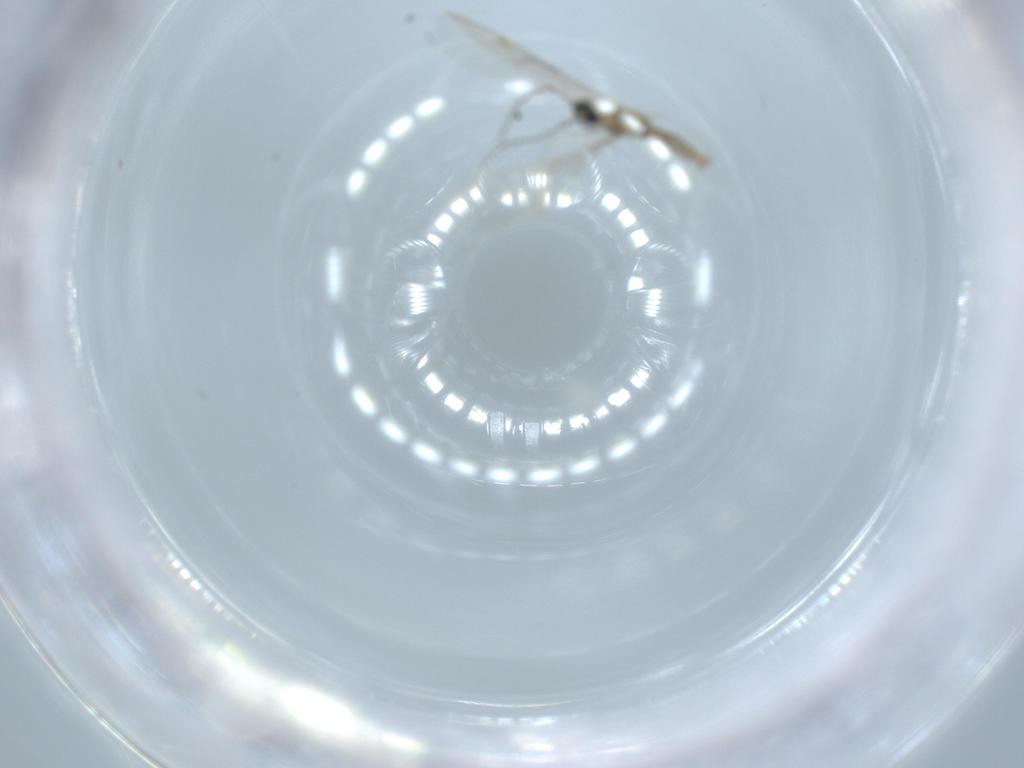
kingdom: Animalia
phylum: Arthropoda
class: Insecta
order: Diptera
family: Cecidomyiidae
